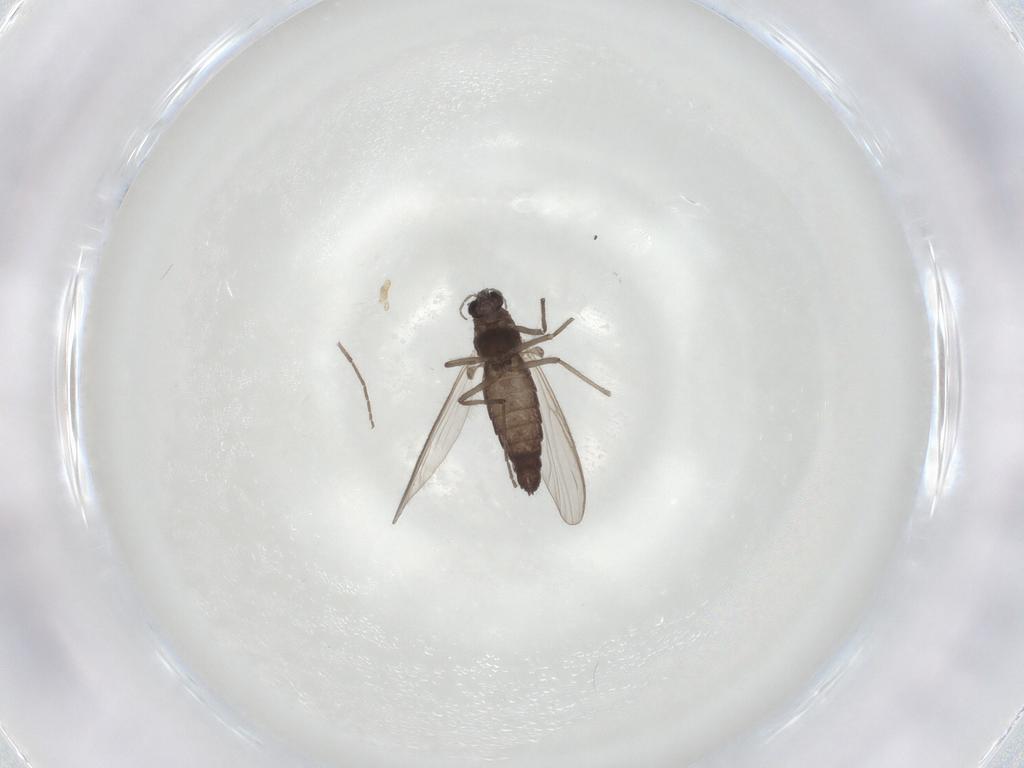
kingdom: Animalia
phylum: Arthropoda
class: Insecta
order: Diptera
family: Chironomidae
